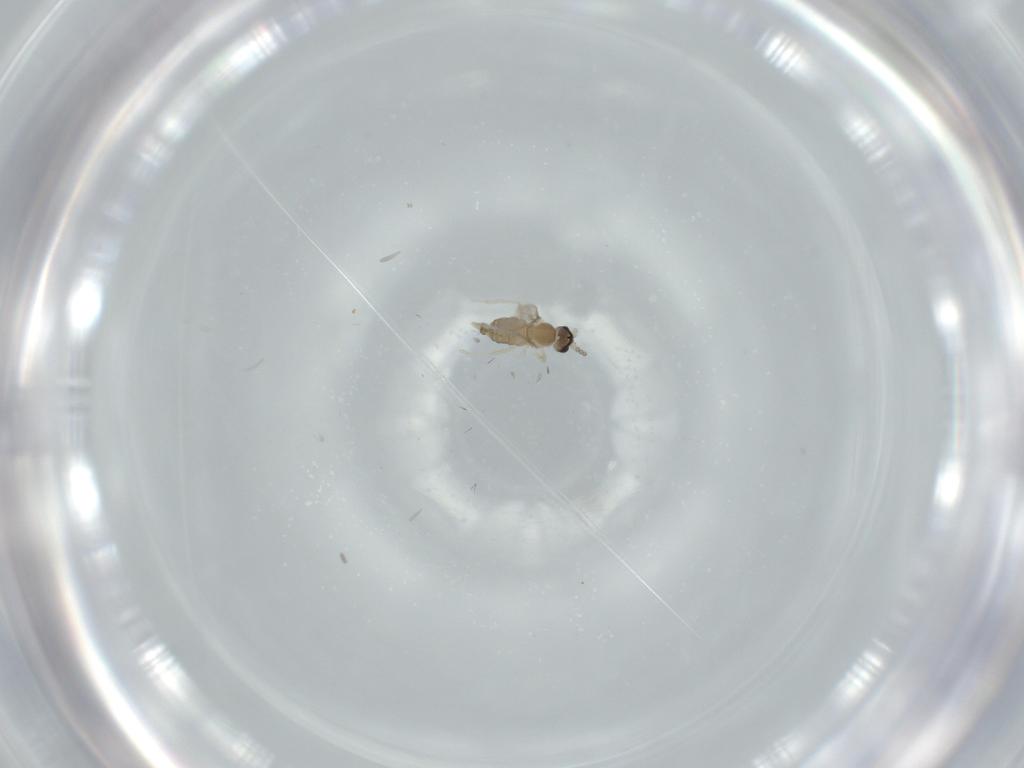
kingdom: Animalia
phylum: Arthropoda
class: Insecta
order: Diptera
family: Cecidomyiidae
